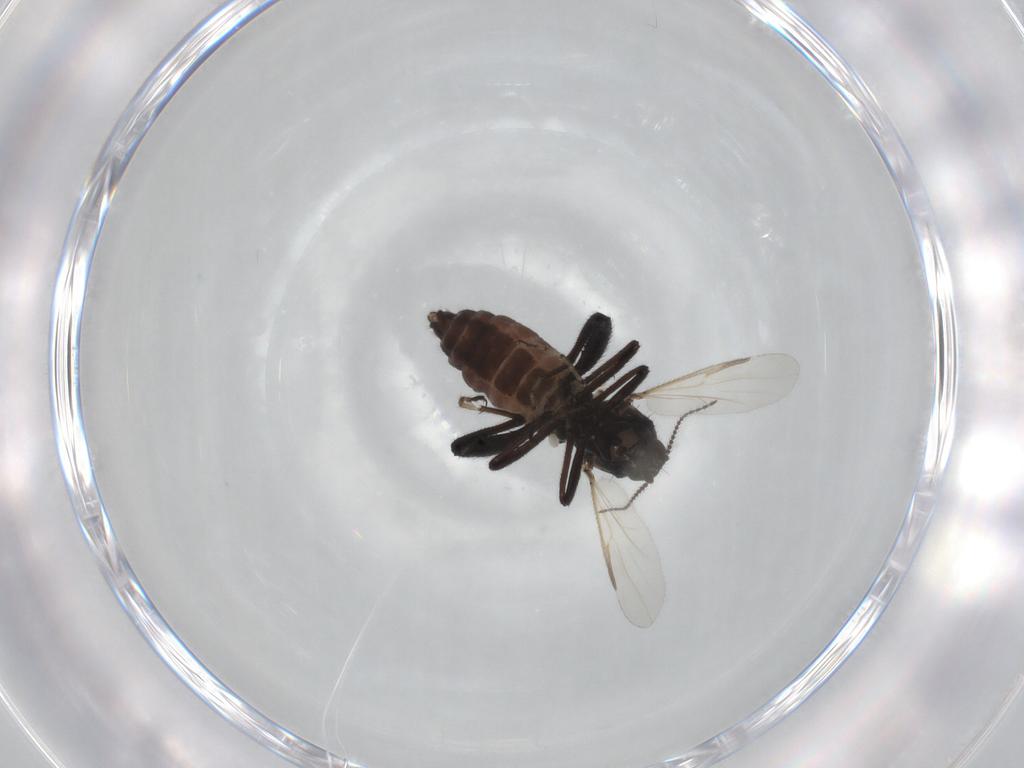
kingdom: Animalia
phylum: Arthropoda
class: Insecta
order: Diptera
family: Ceratopogonidae
